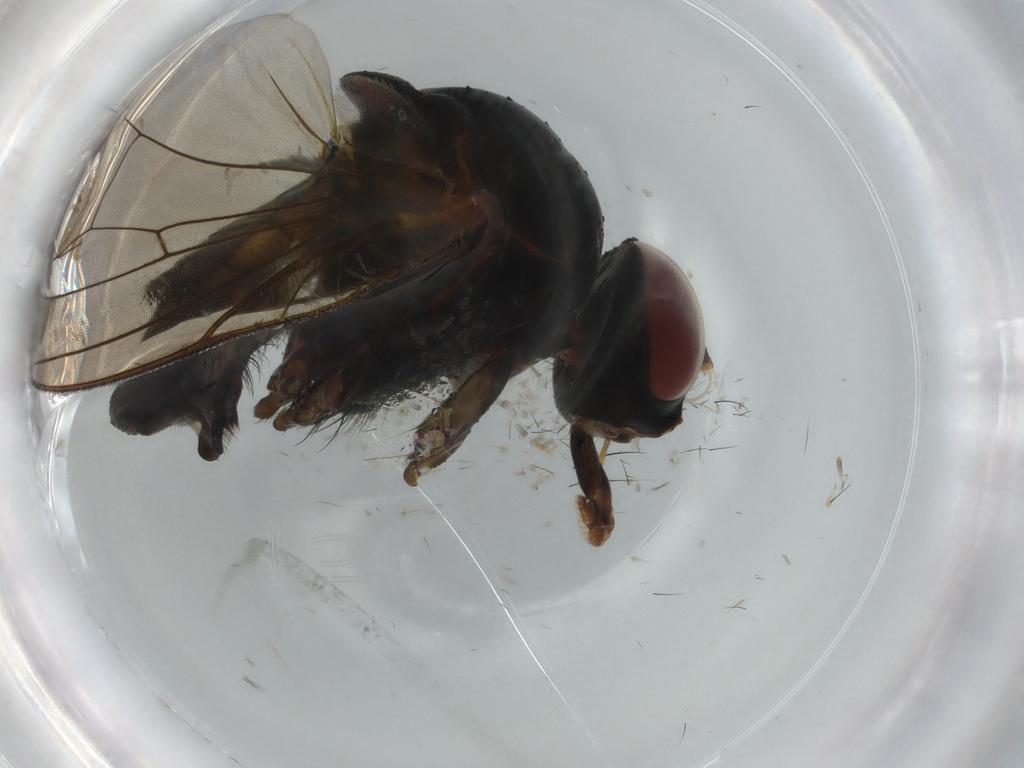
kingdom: Animalia
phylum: Arthropoda
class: Insecta
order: Diptera
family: Anthomyiidae
